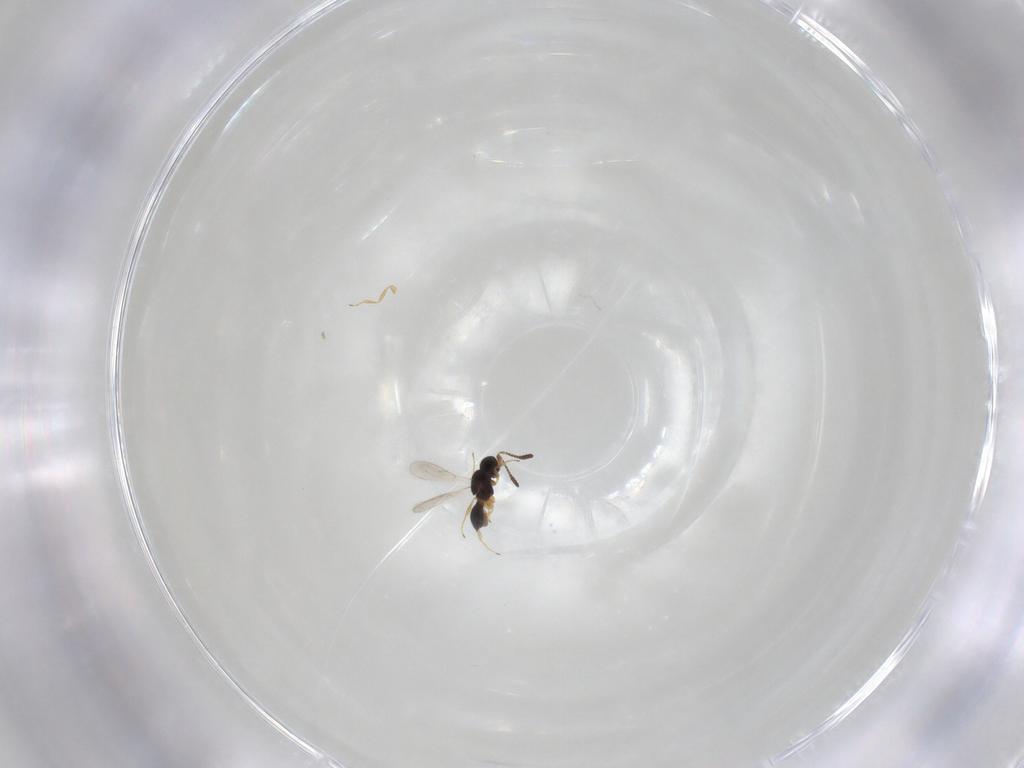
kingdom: Animalia
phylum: Arthropoda
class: Insecta
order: Hymenoptera
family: Scelionidae
